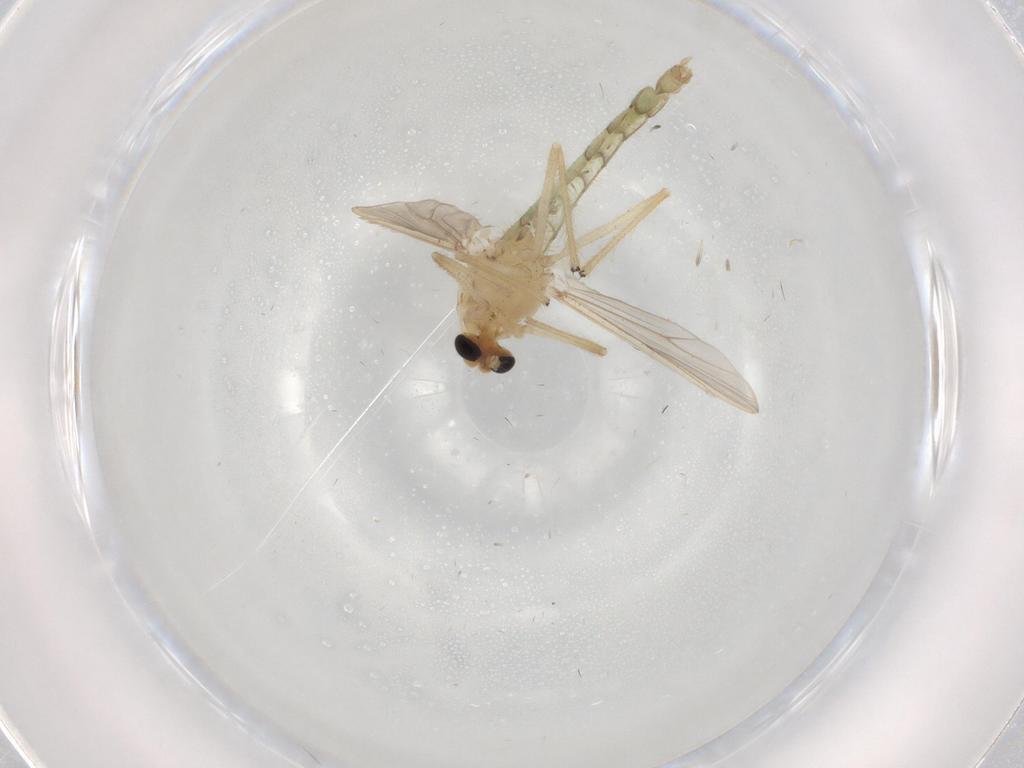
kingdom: Animalia
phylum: Arthropoda
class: Insecta
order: Diptera
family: Chironomidae
